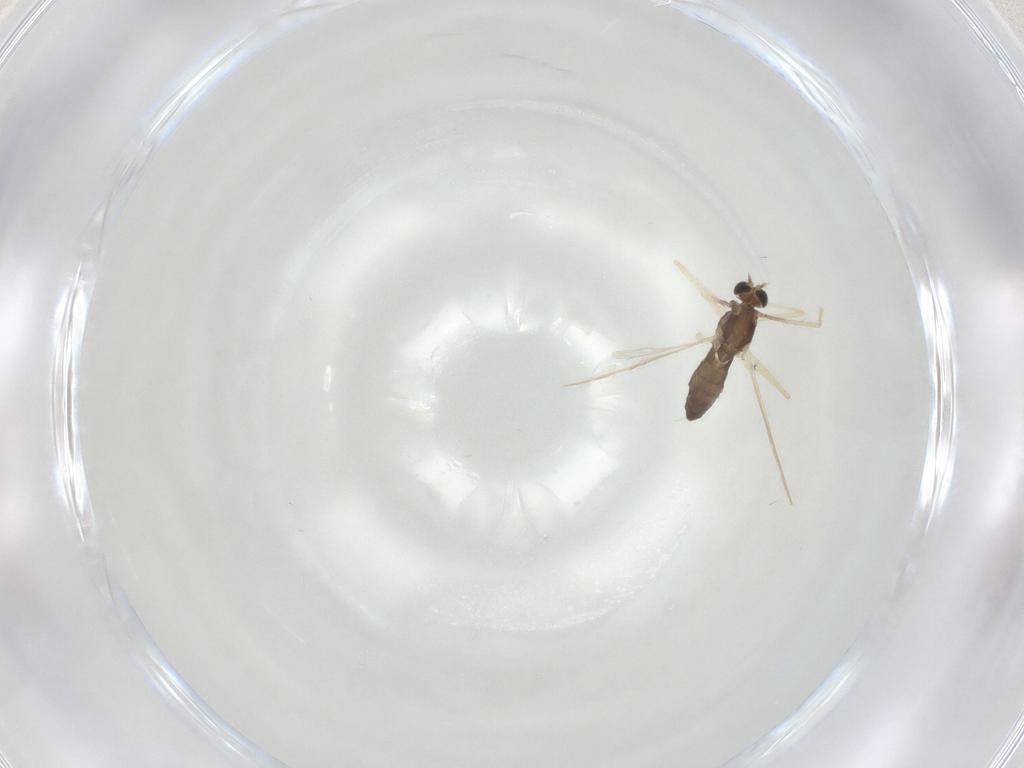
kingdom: Animalia
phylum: Arthropoda
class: Insecta
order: Diptera
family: Chironomidae
